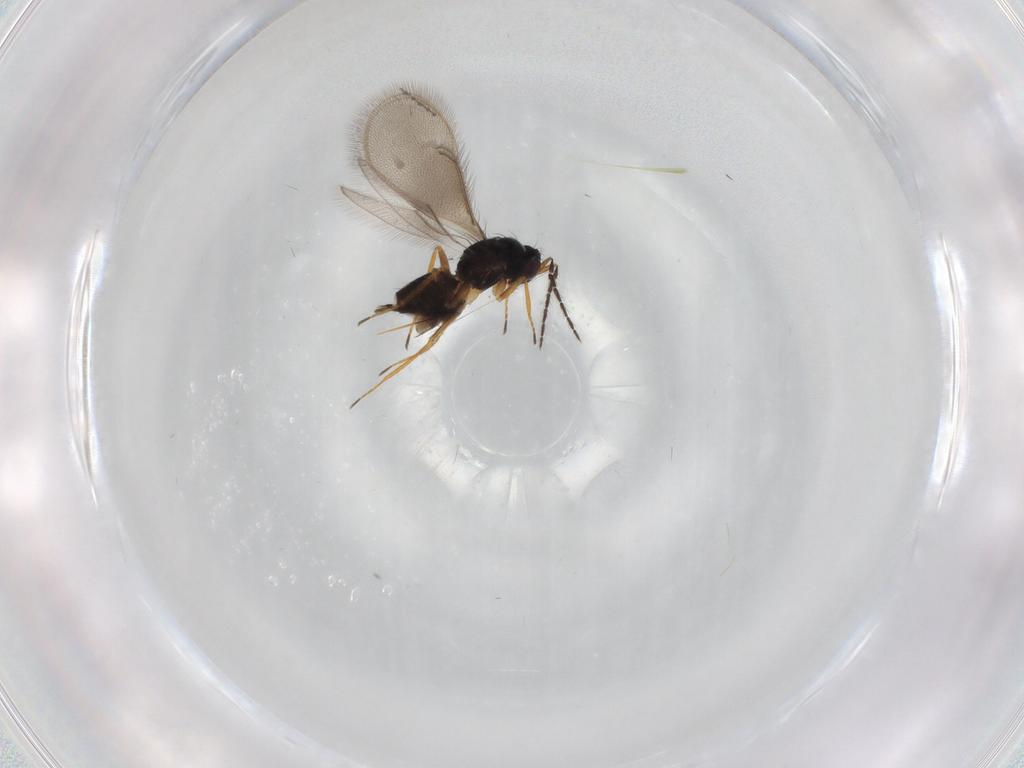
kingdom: Animalia
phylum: Arthropoda
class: Insecta
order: Hymenoptera
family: Eulophidae
